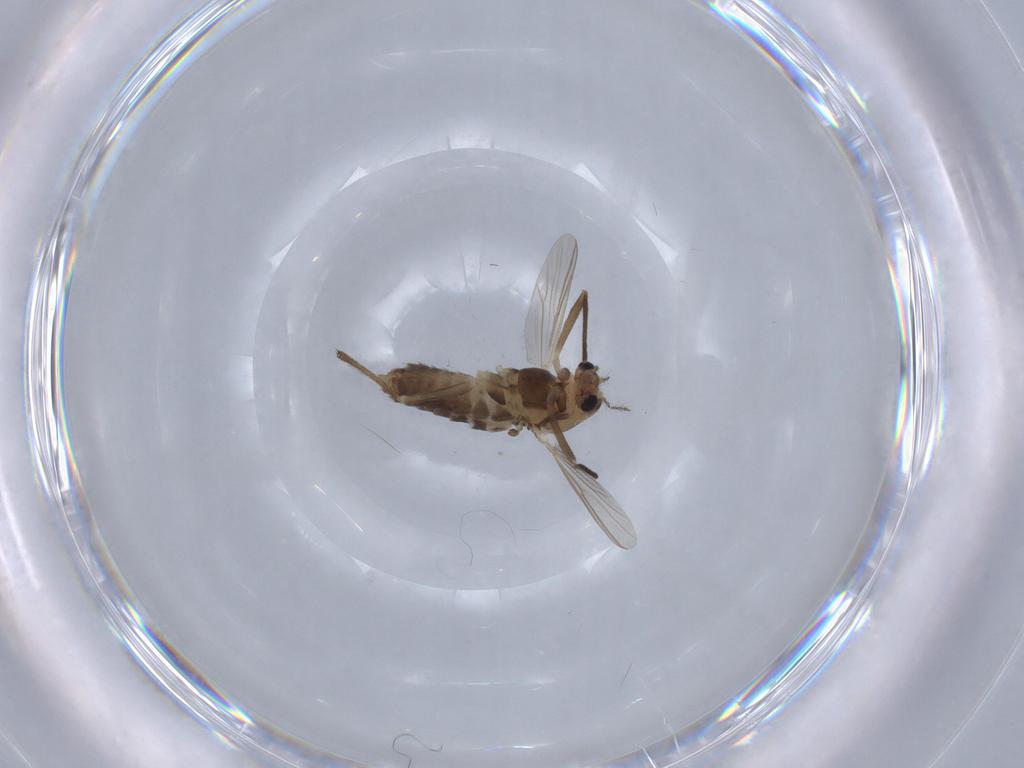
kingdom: Animalia
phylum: Arthropoda
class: Insecta
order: Diptera
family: Chironomidae
